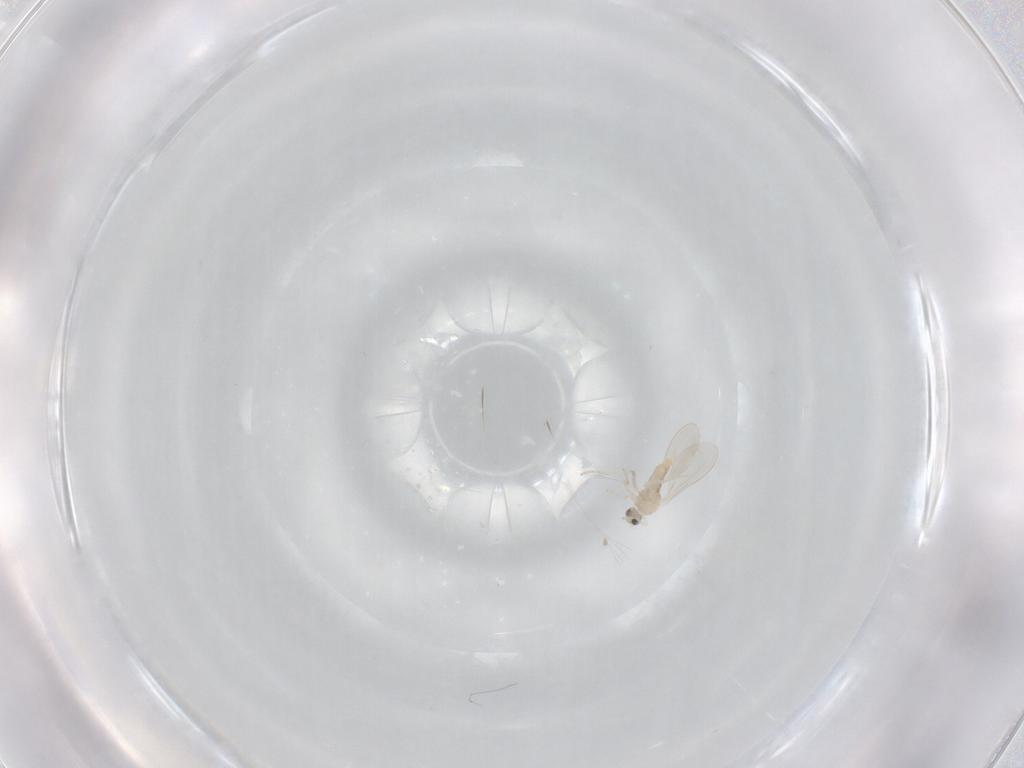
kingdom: Animalia
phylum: Arthropoda
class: Insecta
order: Diptera
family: Cecidomyiidae
